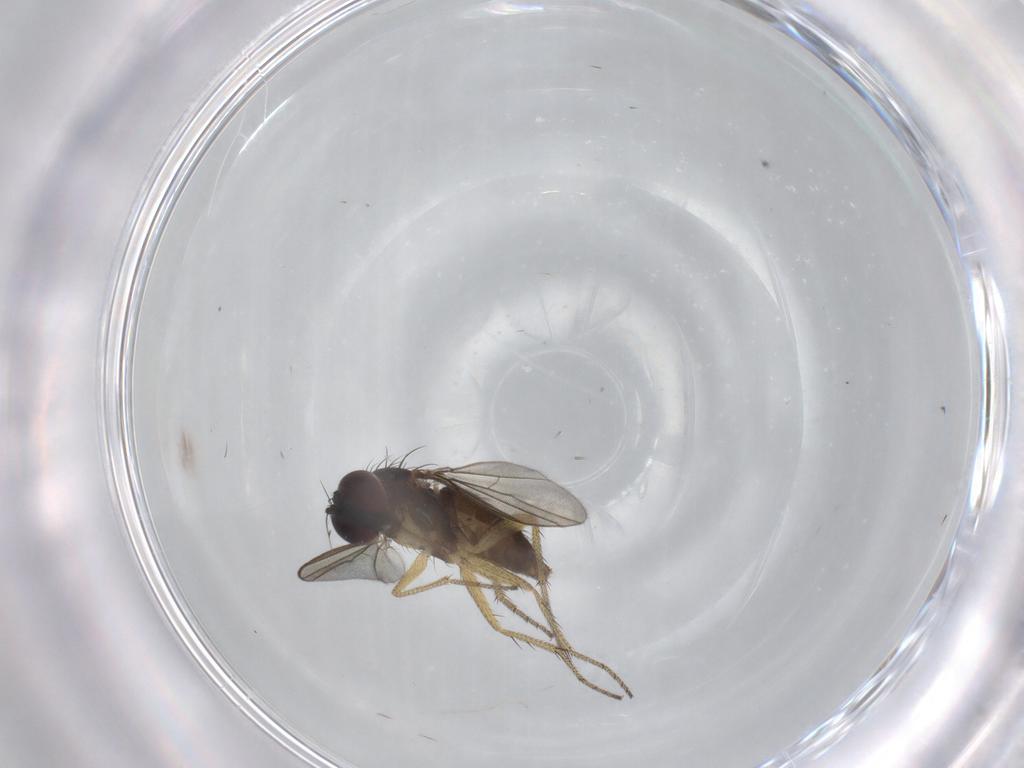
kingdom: Animalia
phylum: Arthropoda
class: Insecta
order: Diptera
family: Dolichopodidae
